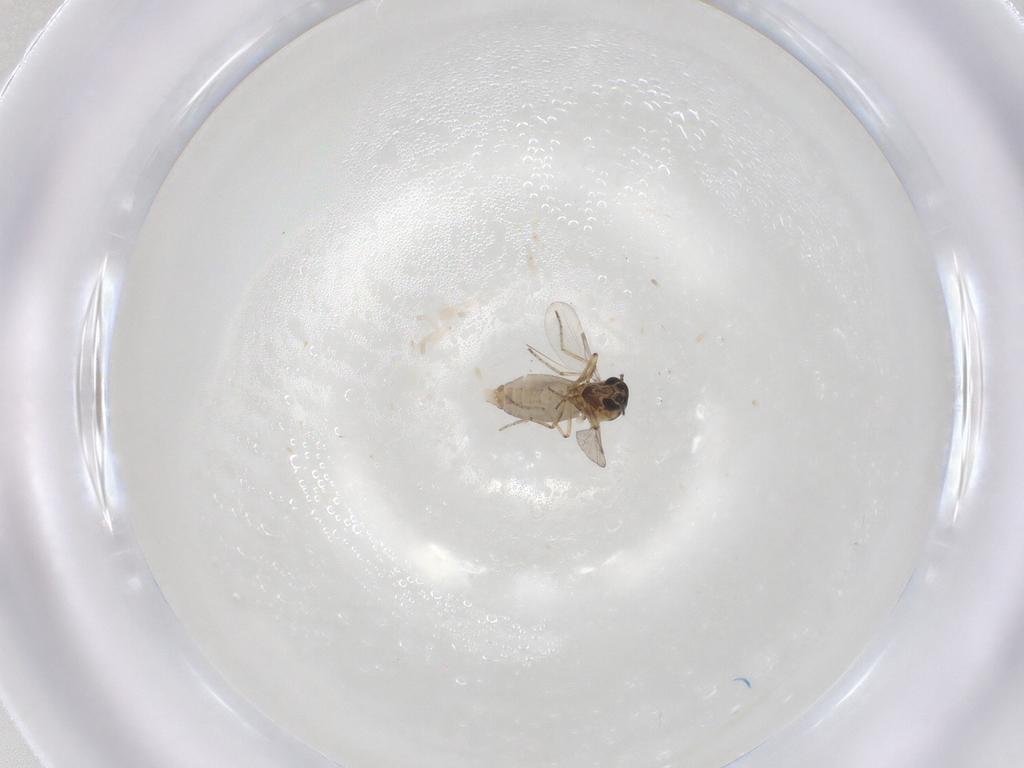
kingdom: Animalia
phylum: Arthropoda
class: Insecta
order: Diptera
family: Ceratopogonidae
